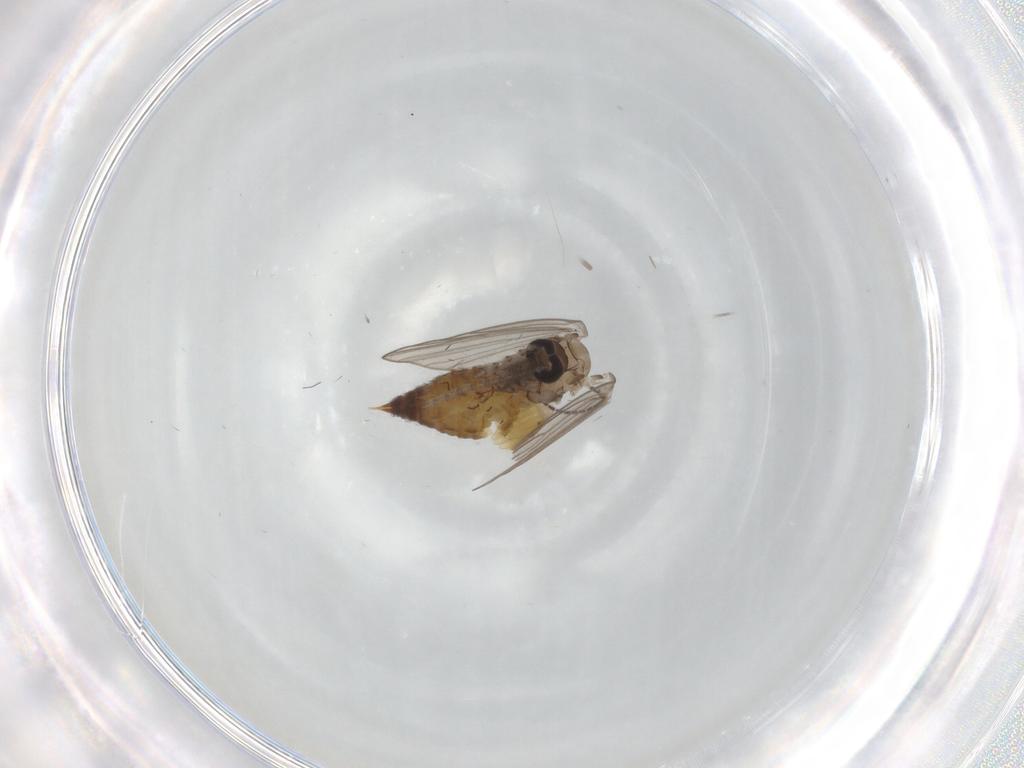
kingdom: Animalia
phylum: Arthropoda
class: Insecta
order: Diptera
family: Psychodidae
